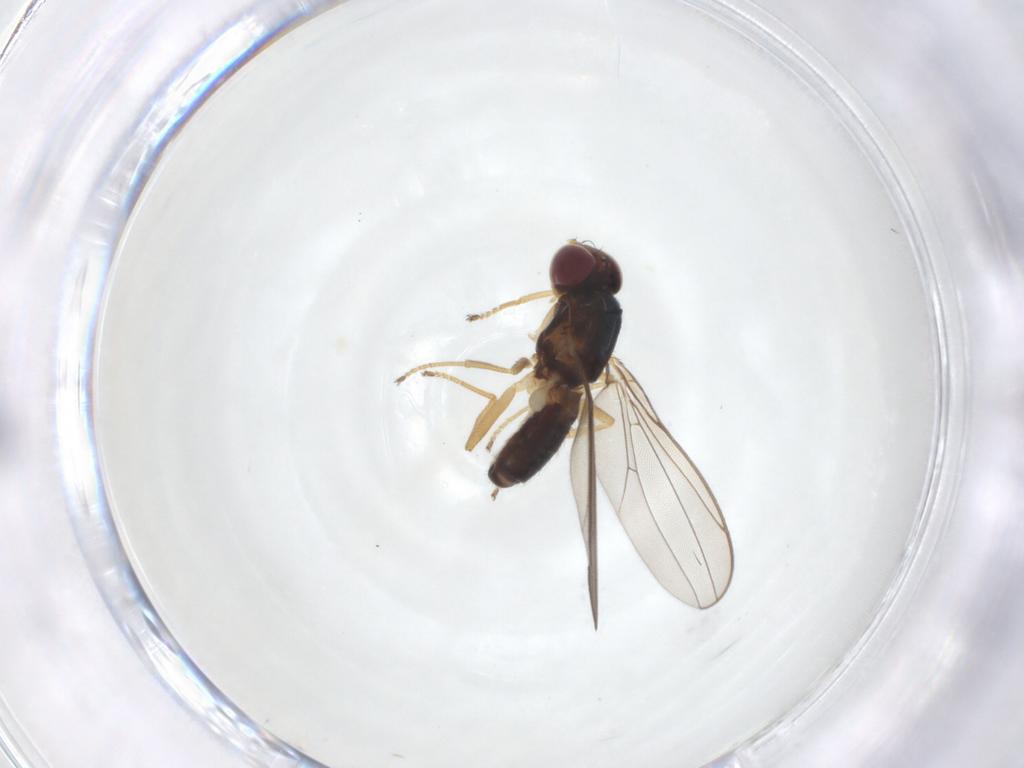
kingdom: Animalia
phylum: Arthropoda
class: Insecta
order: Diptera
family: Asteiidae
